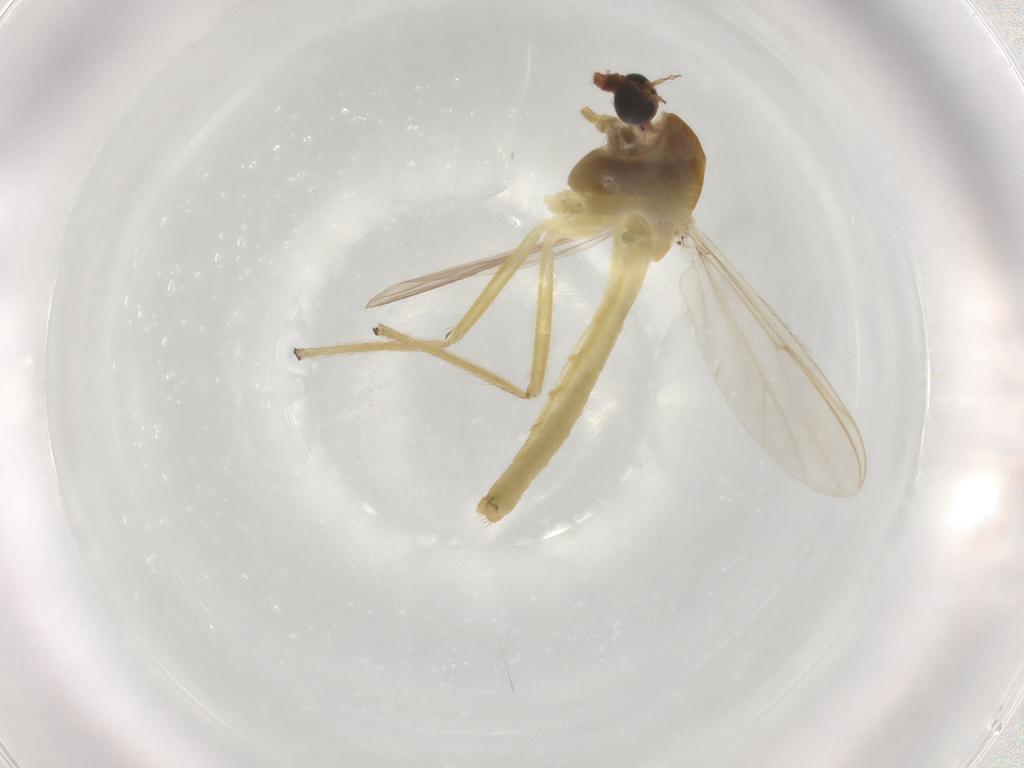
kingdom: Animalia
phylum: Arthropoda
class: Insecta
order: Diptera
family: Chironomidae
